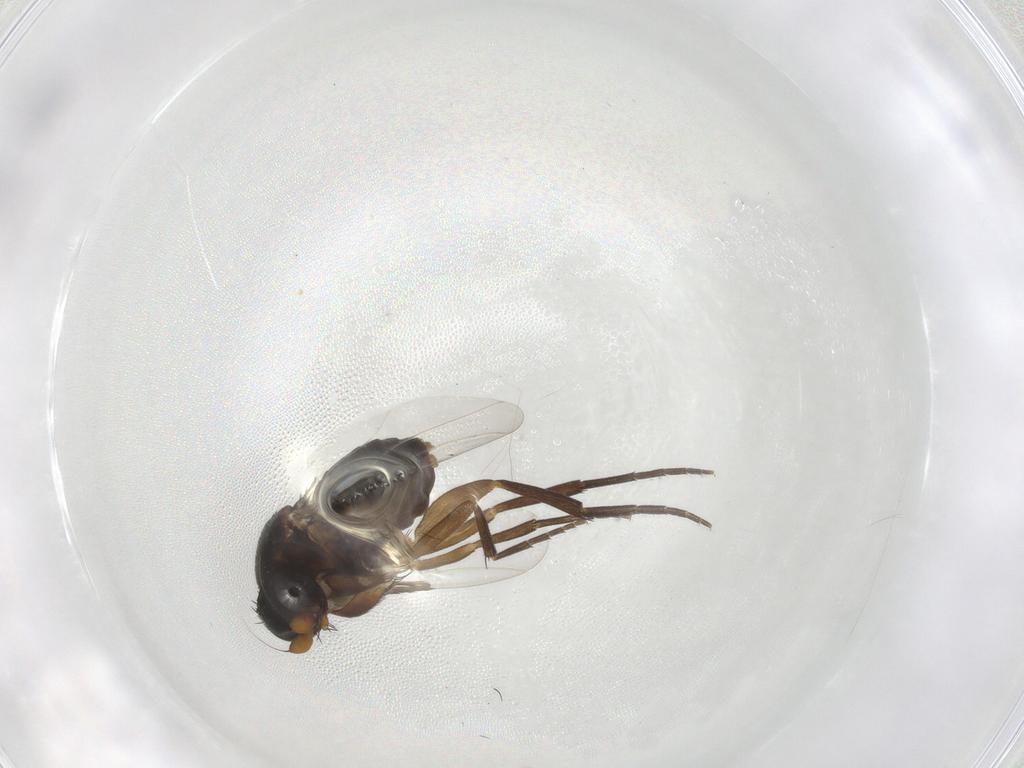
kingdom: Animalia
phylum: Arthropoda
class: Insecta
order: Diptera
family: Phoridae
